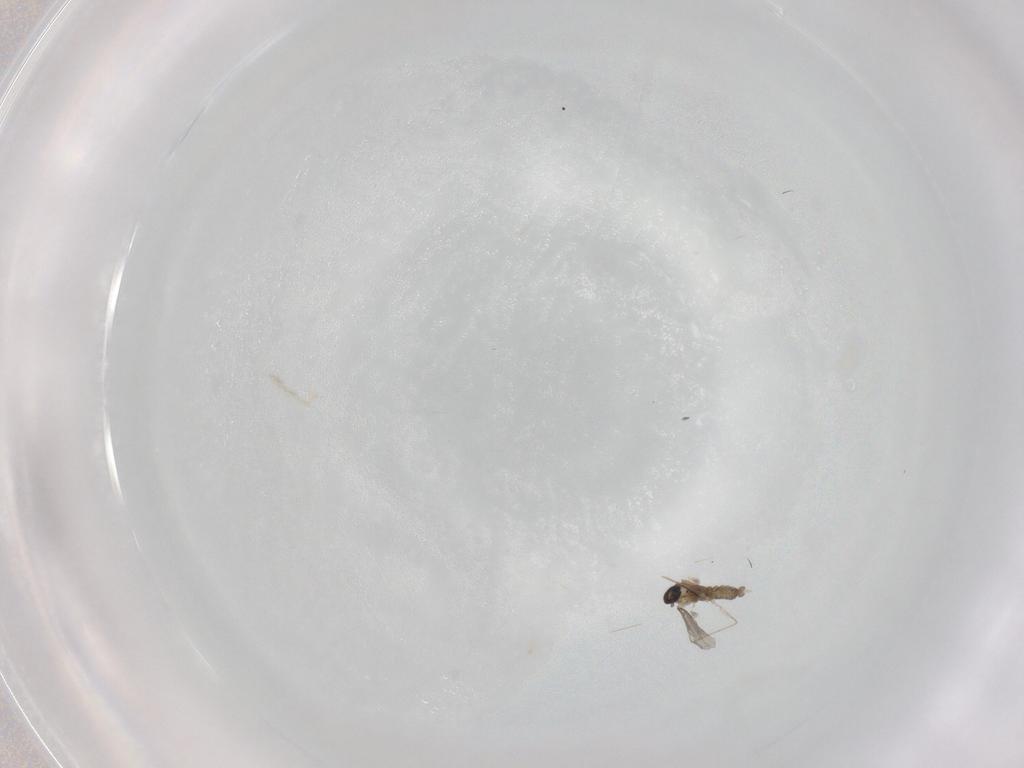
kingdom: Animalia
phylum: Arthropoda
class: Insecta
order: Diptera
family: Chironomidae
